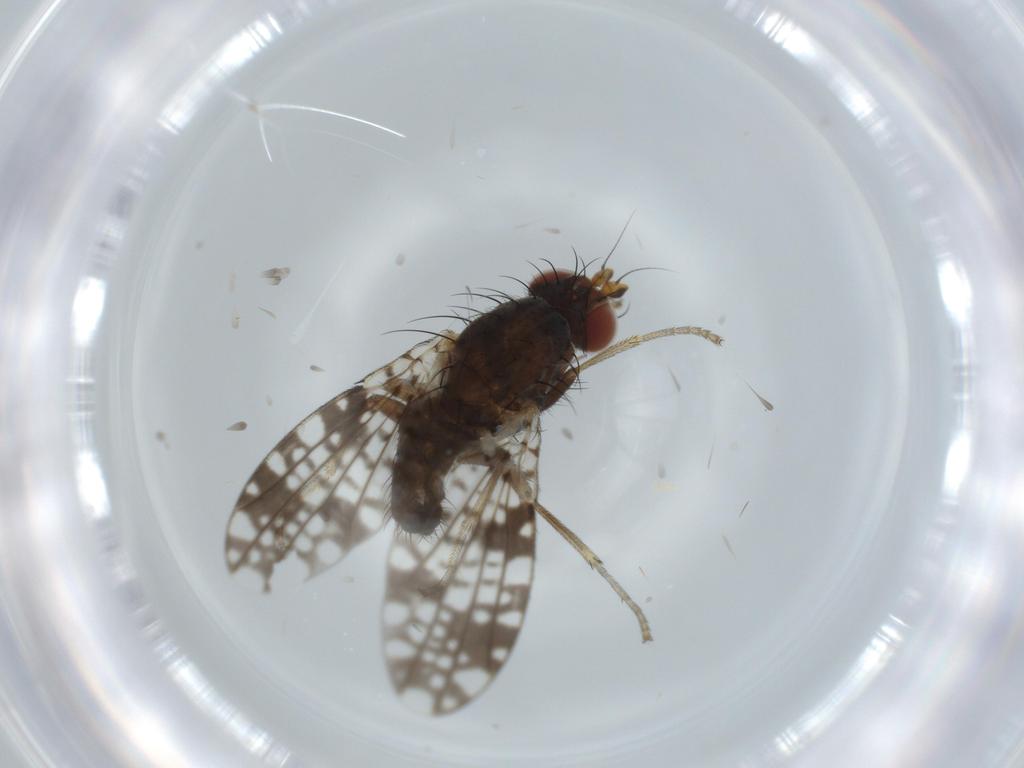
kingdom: Animalia
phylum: Arthropoda
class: Insecta
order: Diptera
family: Tephritidae
